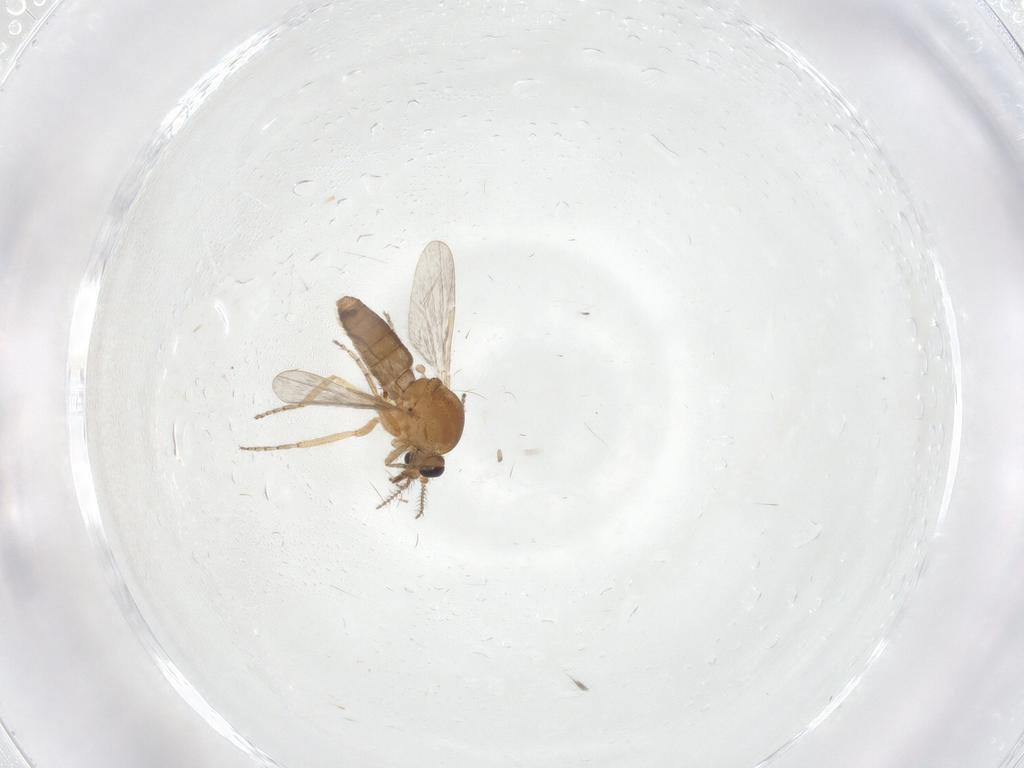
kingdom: Animalia
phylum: Arthropoda
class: Insecta
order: Diptera
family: Ceratopogonidae
